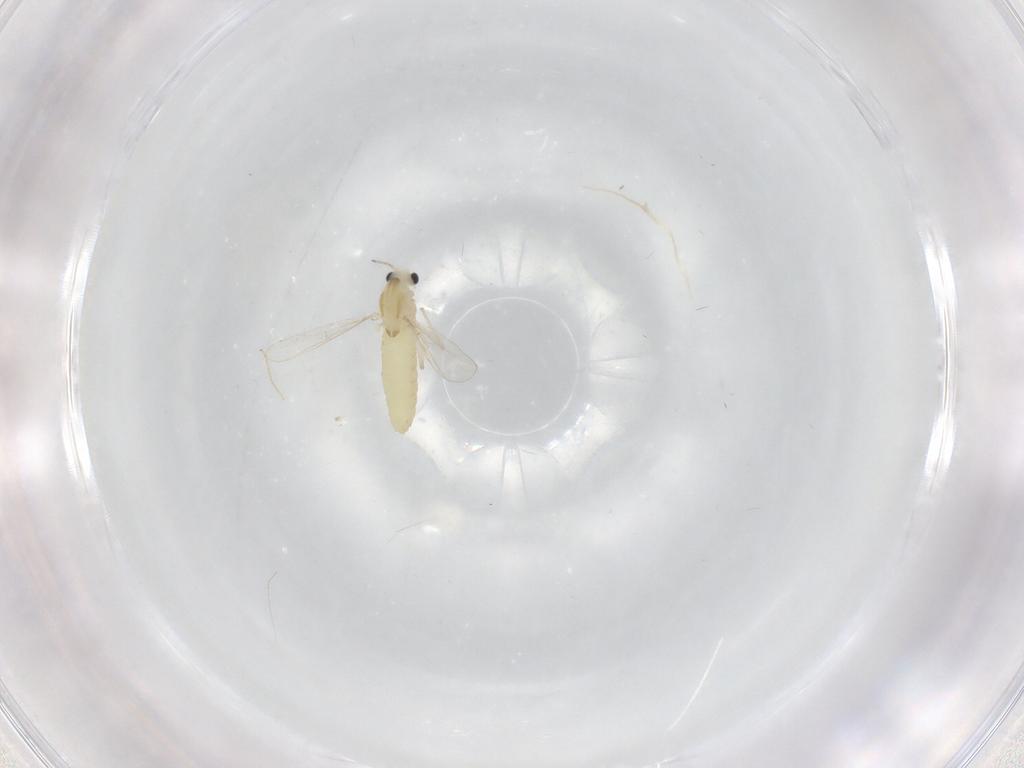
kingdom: Animalia
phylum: Arthropoda
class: Insecta
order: Diptera
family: Chironomidae
